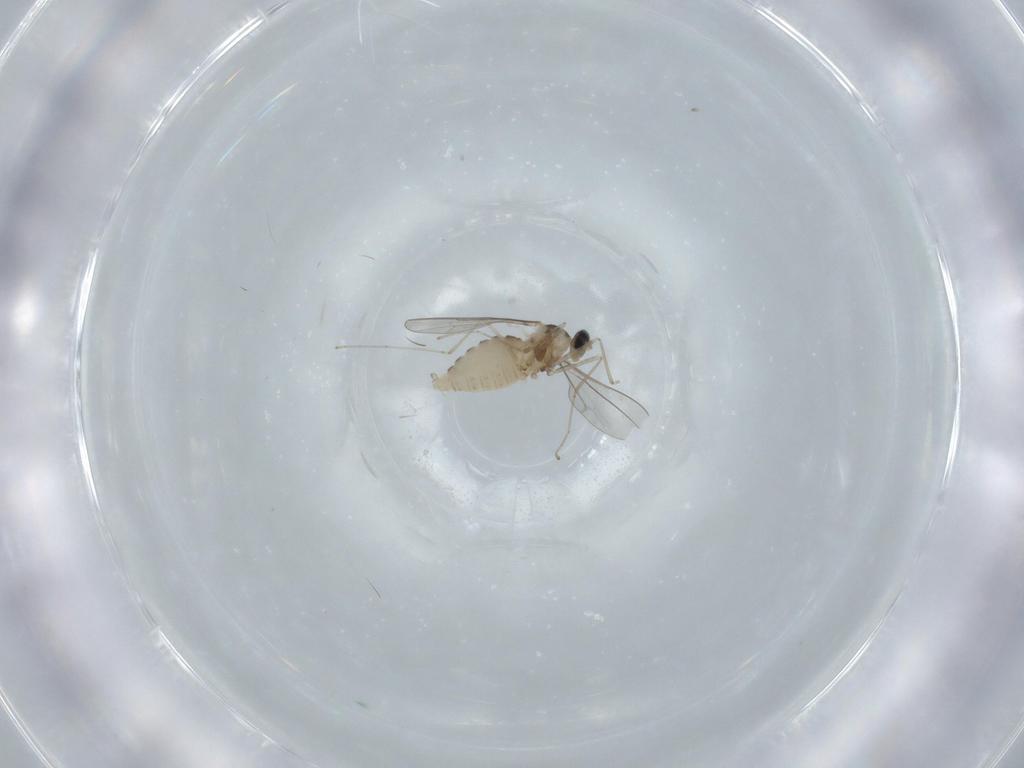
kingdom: Animalia
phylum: Arthropoda
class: Insecta
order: Diptera
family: Cecidomyiidae
